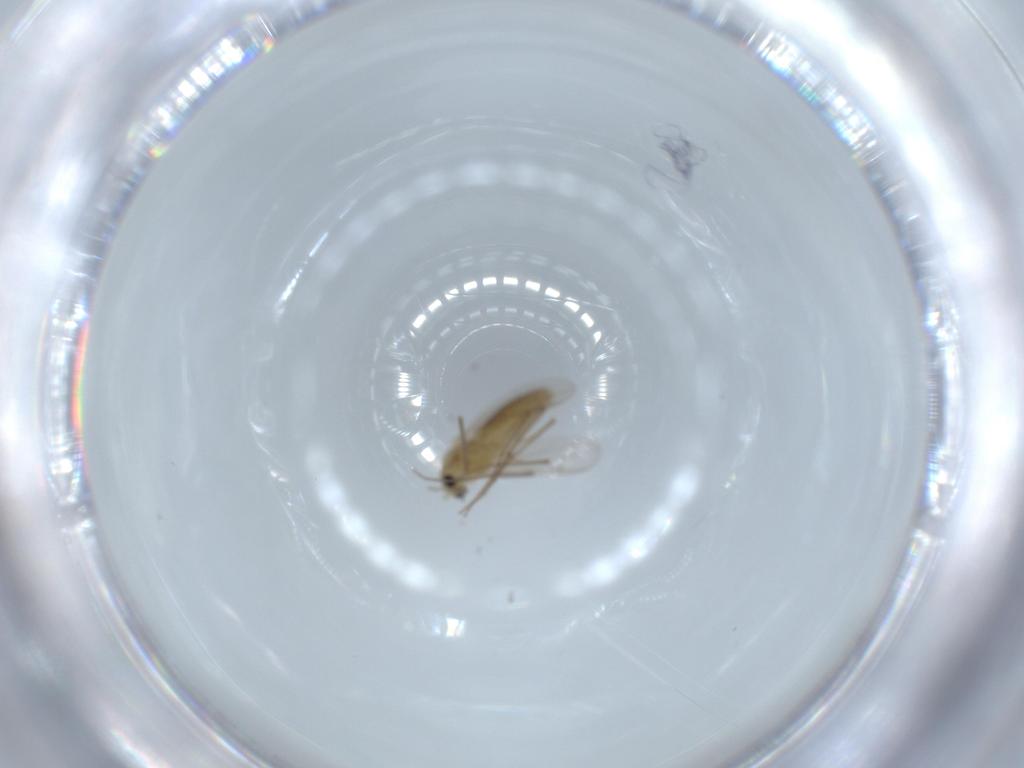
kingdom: Animalia
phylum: Arthropoda
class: Insecta
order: Diptera
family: Chironomidae
